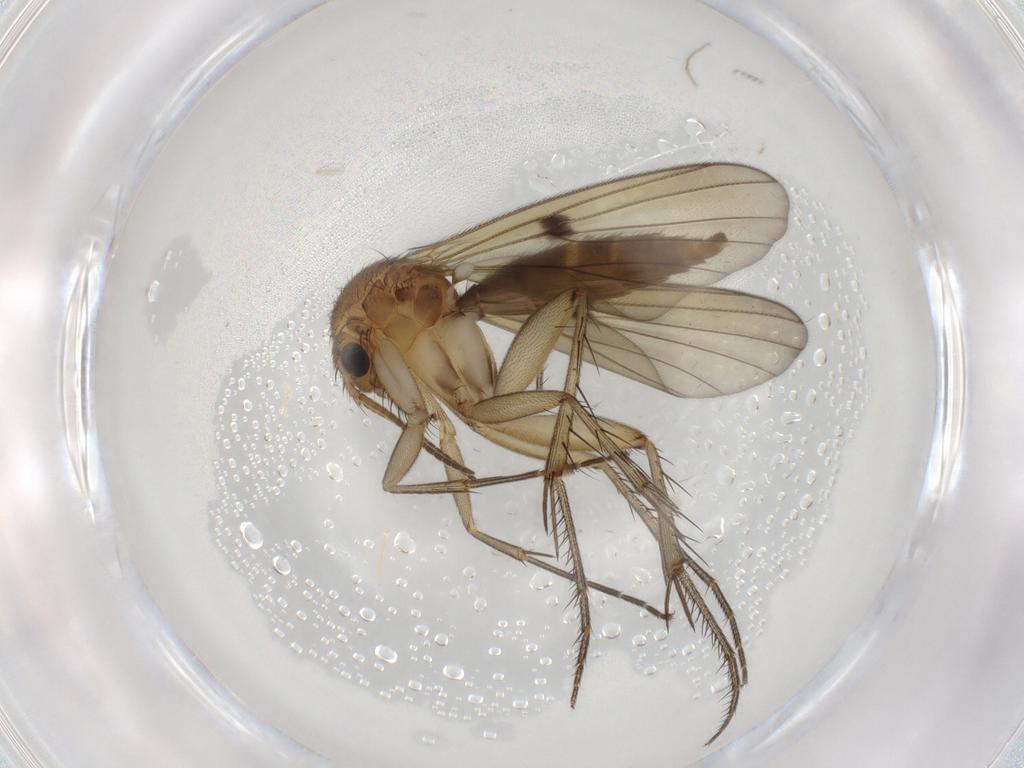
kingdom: Animalia
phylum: Arthropoda
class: Insecta
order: Diptera
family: Mycetophilidae
